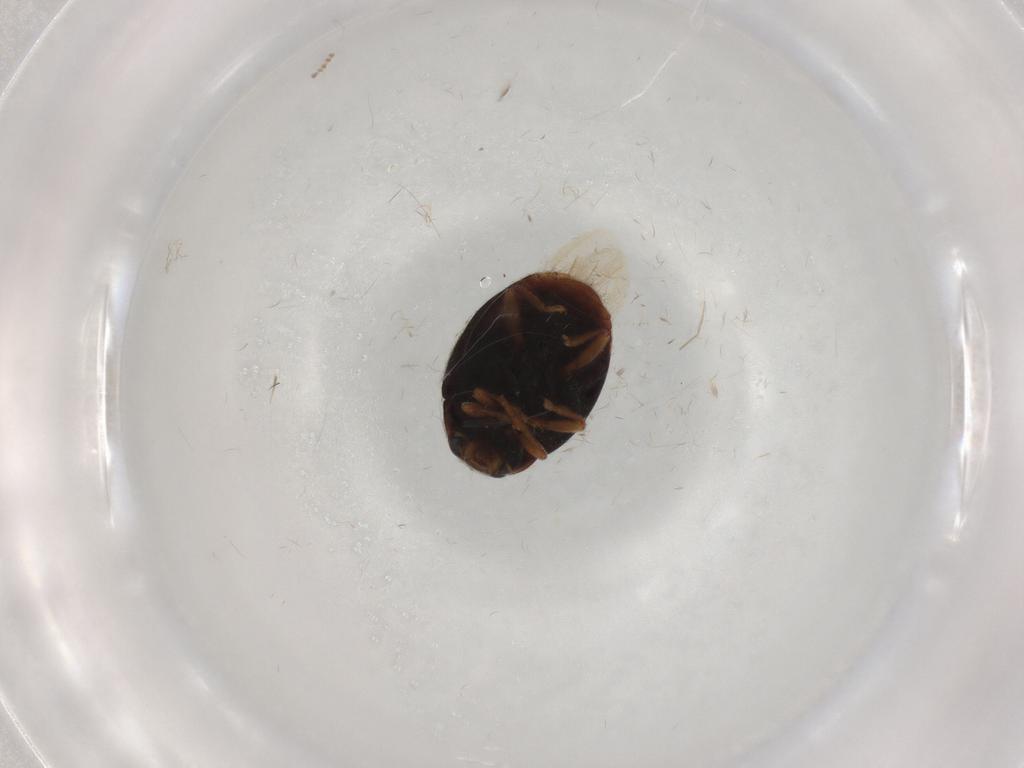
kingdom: Animalia
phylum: Arthropoda
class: Insecta
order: Coleoptera
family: Coccinellidae
